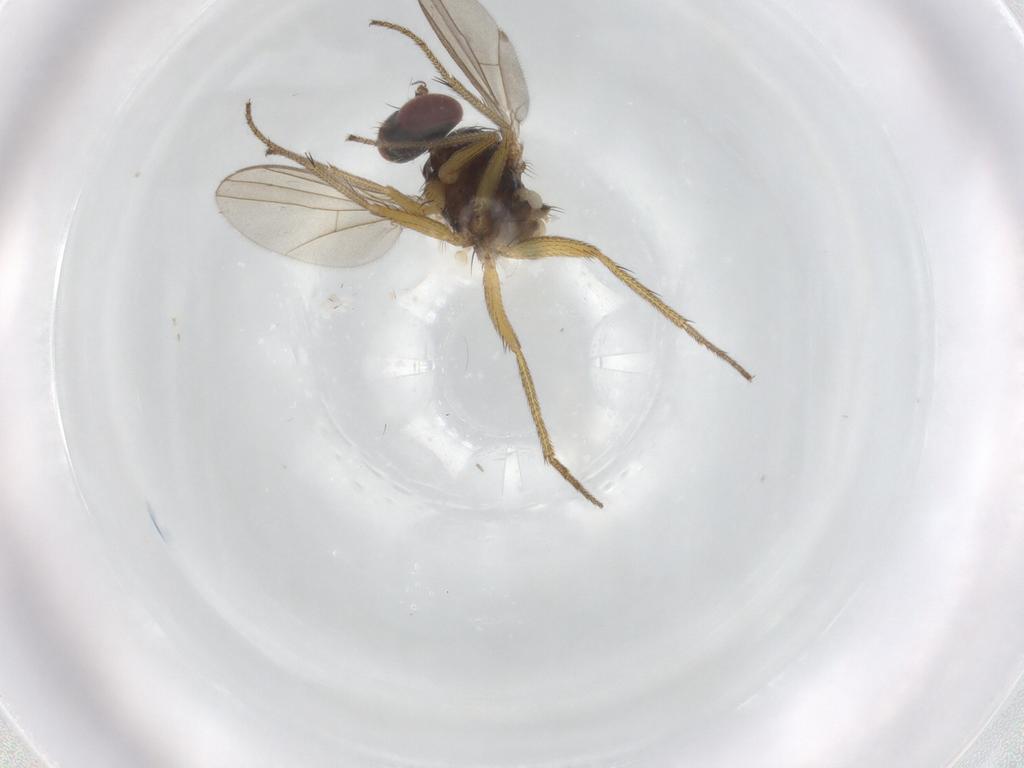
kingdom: Animalia
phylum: Arthropoda
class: Insecta
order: Diptera
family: Chironomidae
